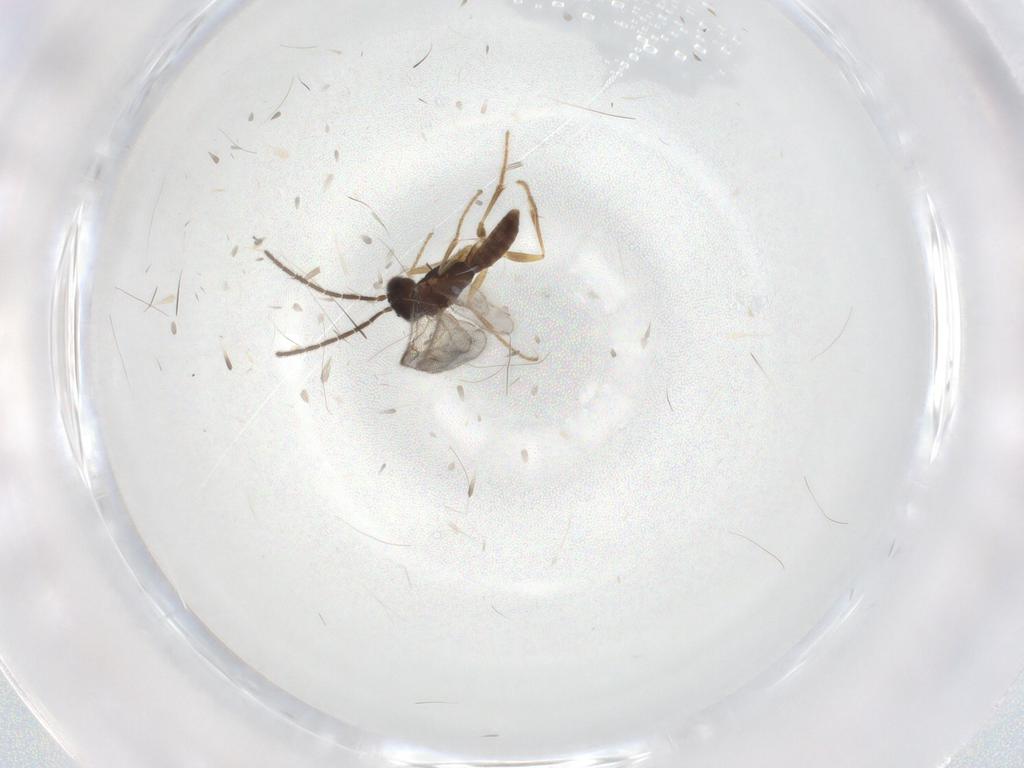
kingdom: Animalia
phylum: Arthropoda
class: Insecta
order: Hymenoptera
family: Dryinidae
